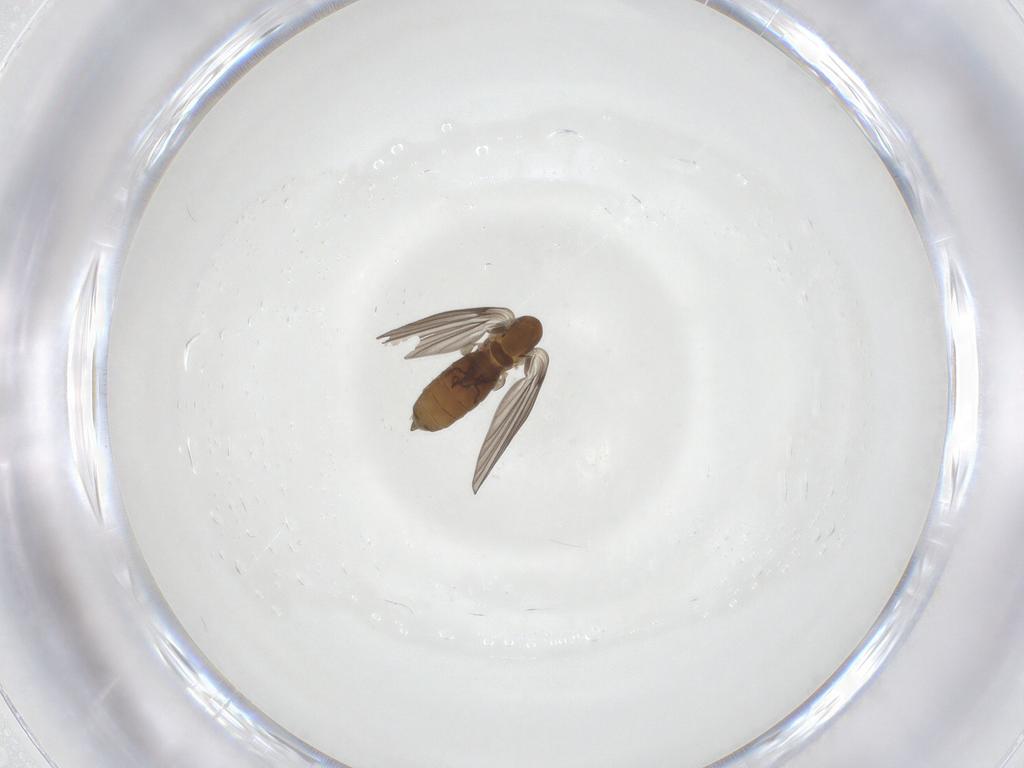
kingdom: Animalia
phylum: Arthropoda
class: Insecta
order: Diptera
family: Psychodidae
